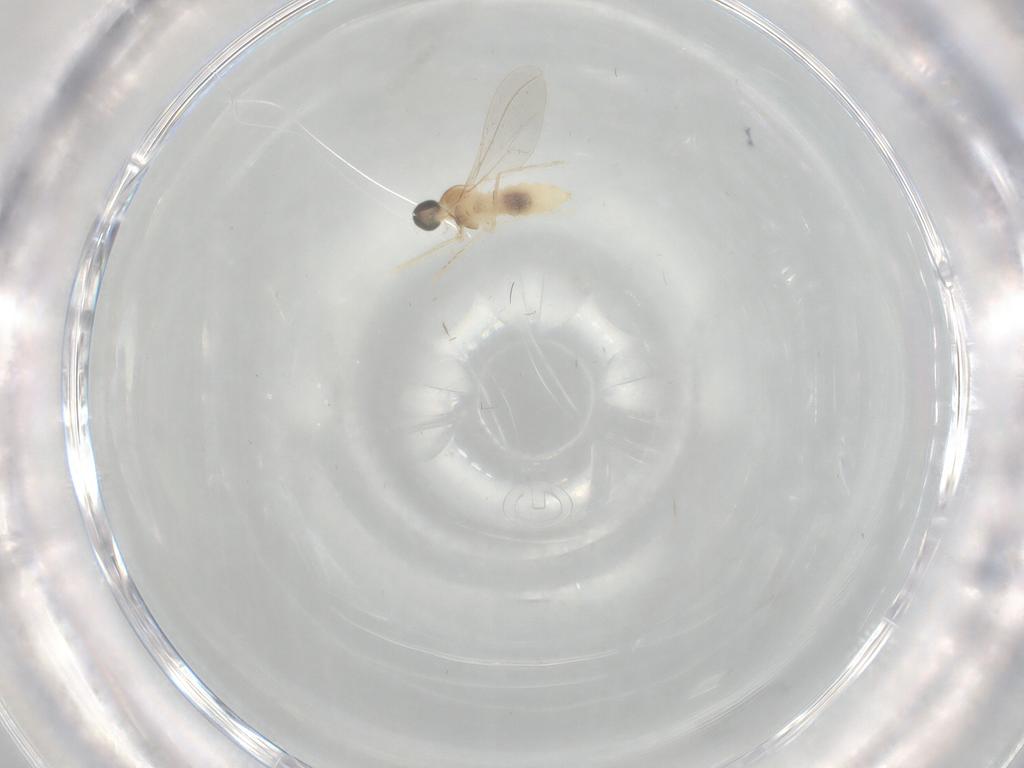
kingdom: Animalia
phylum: Arthropoda
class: Insecta
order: Diptera
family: Cecidomyiidae
